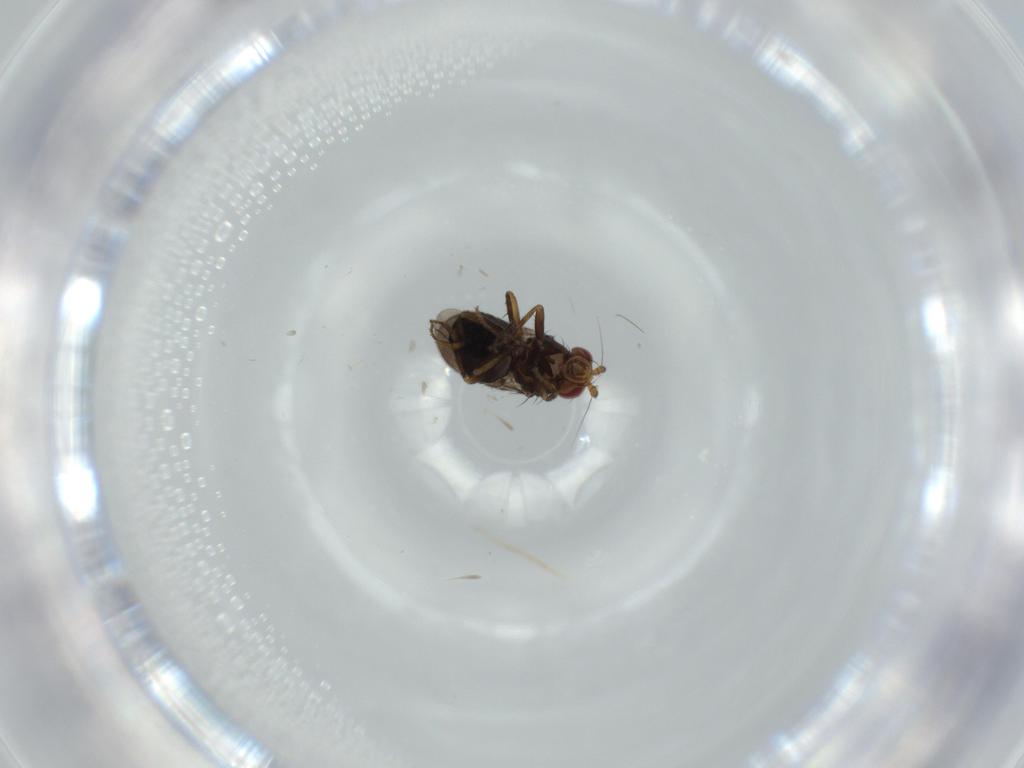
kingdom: Animalia
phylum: Arthropoda
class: Insecta
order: Diptera
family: Sphaeroceridae
